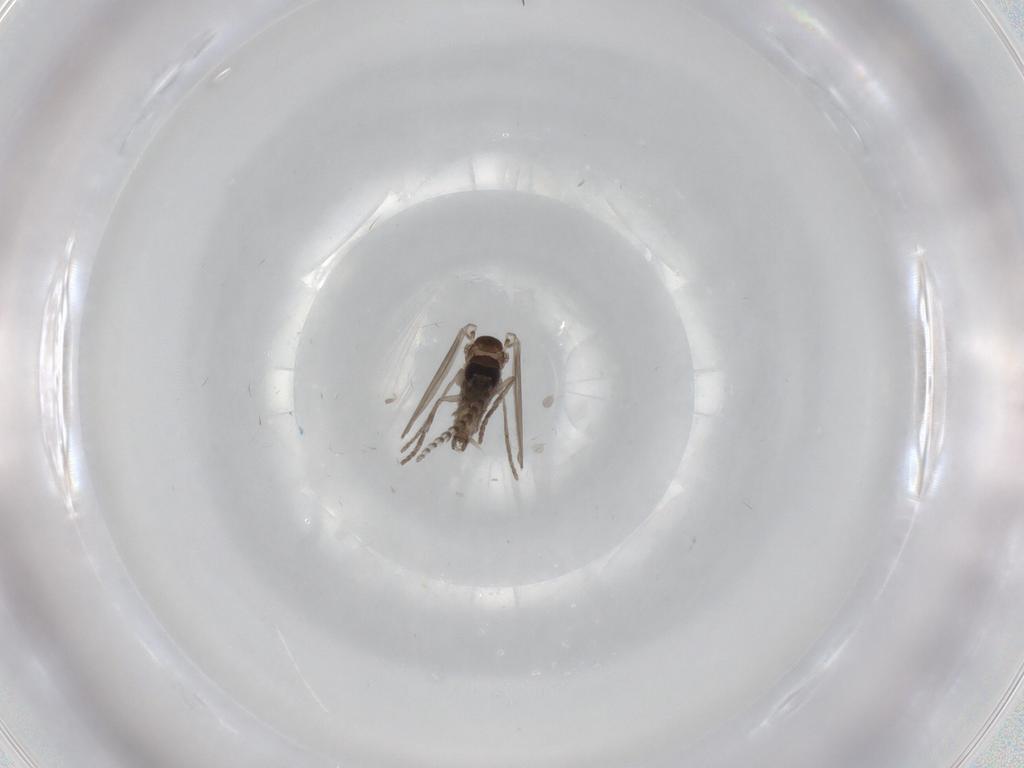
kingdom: Animalia
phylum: Arthropoda
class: Insecta
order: Diptera
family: Psychodidae
